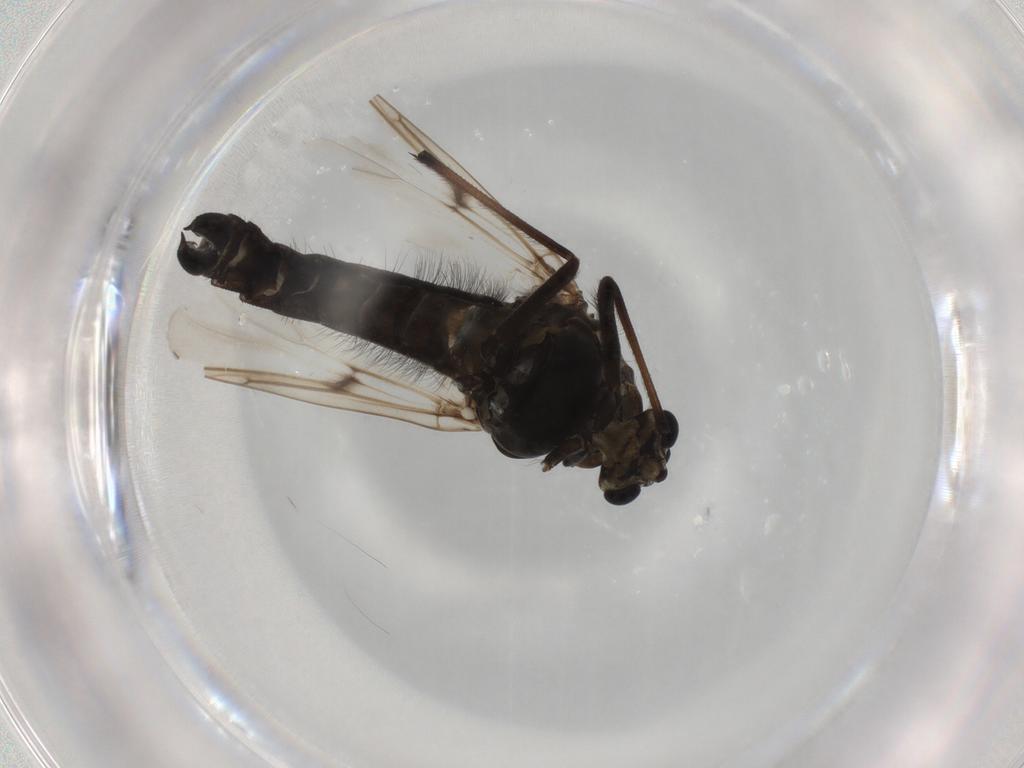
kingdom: Animalia
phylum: Arthropoda
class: Insecta
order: Diptera
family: Chironomidae
